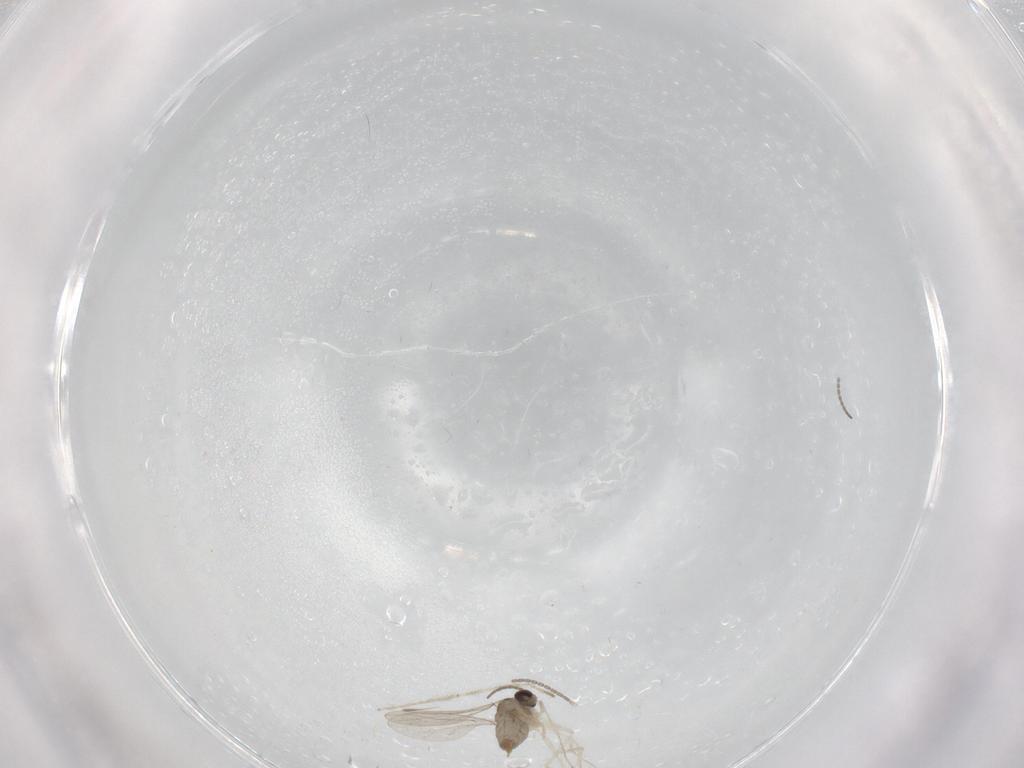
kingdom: Animalia
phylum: Arthropoda
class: Insecta
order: Diptera
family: Cecidomyiidae
